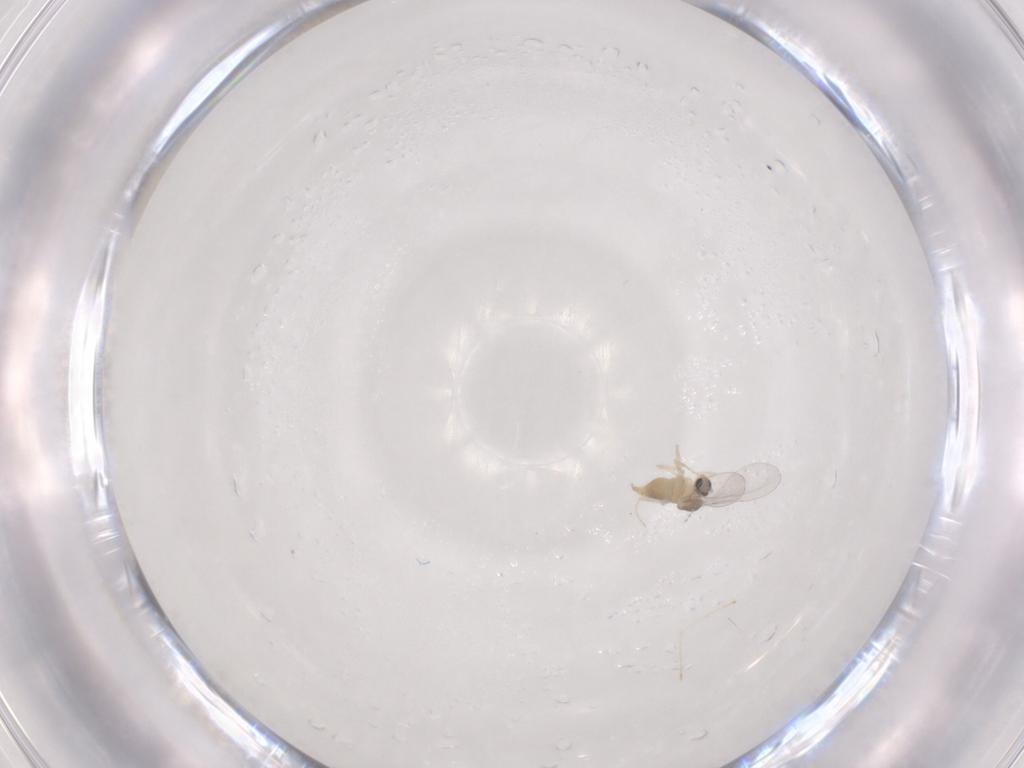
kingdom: Animalia
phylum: Arthropoda
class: Insecta
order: Diptera
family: Cecidomyiidae
